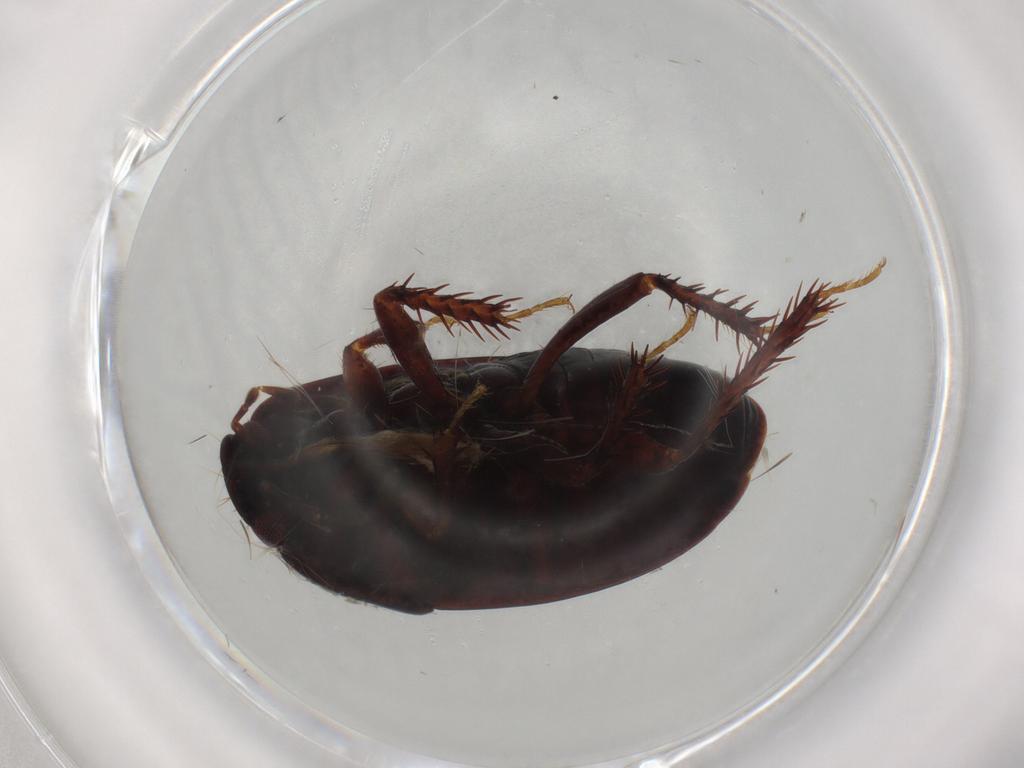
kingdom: Animalia
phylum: Arthropoda
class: Insecta
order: Hemiptera
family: Cydnidae
